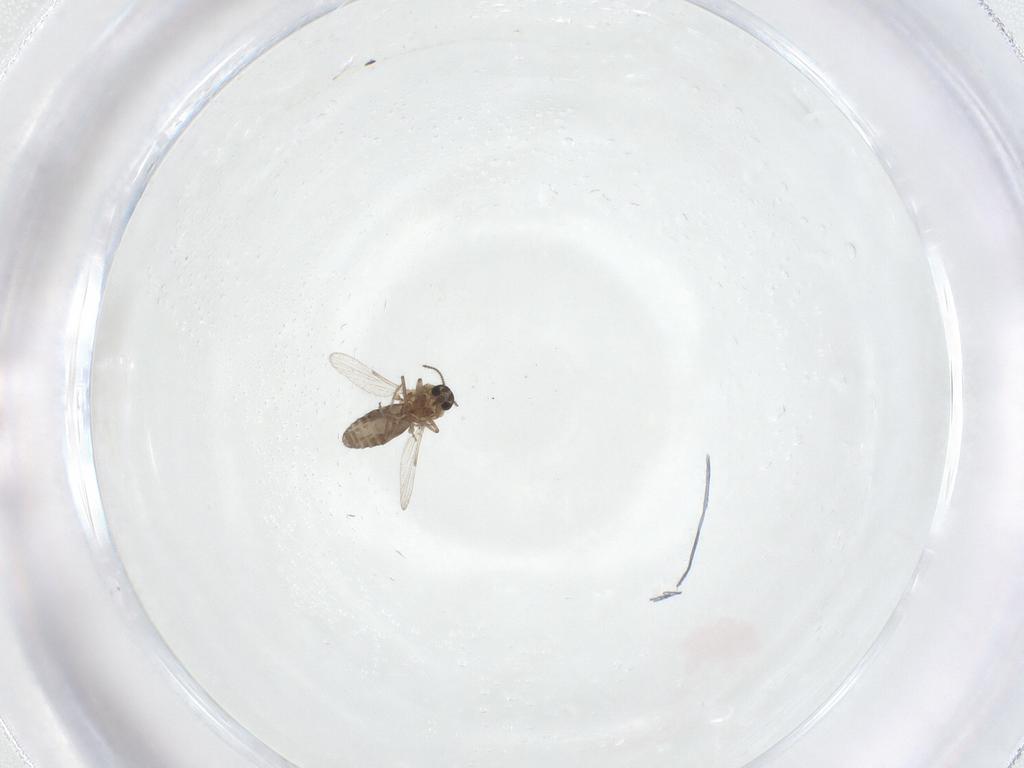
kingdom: Animalia
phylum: Arthropoda
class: Insecta
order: Diptera
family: Ceratopogonidae
